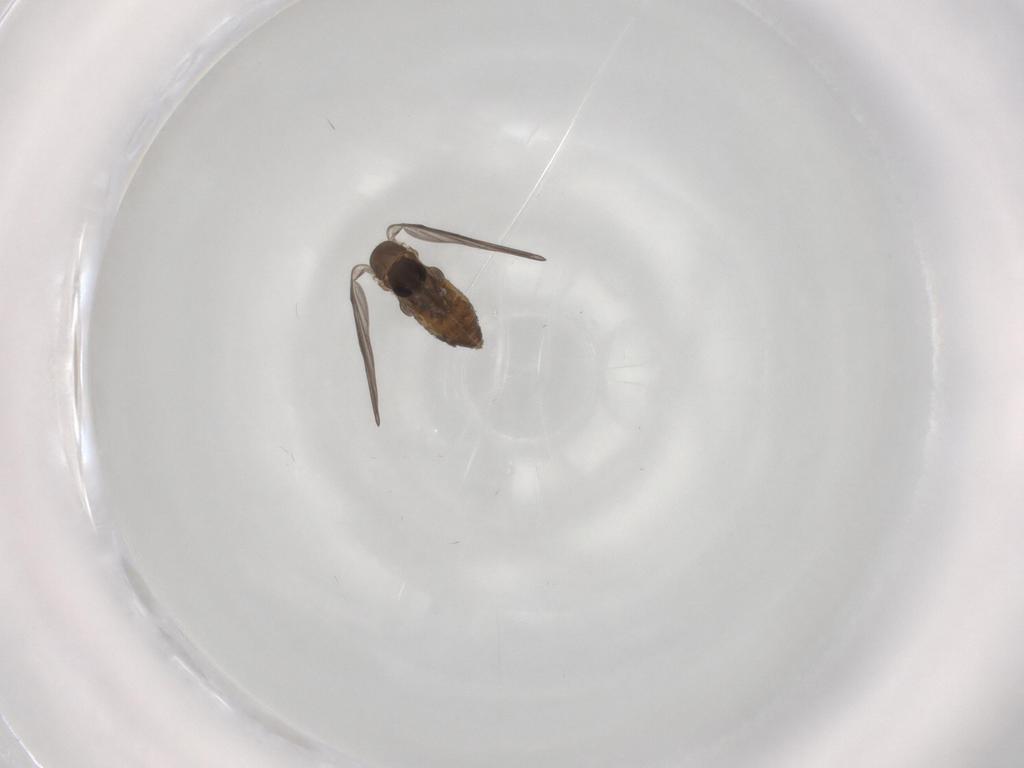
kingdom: Animalia
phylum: Arthropoda
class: Insecta
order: Diptera
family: Psychodidae
